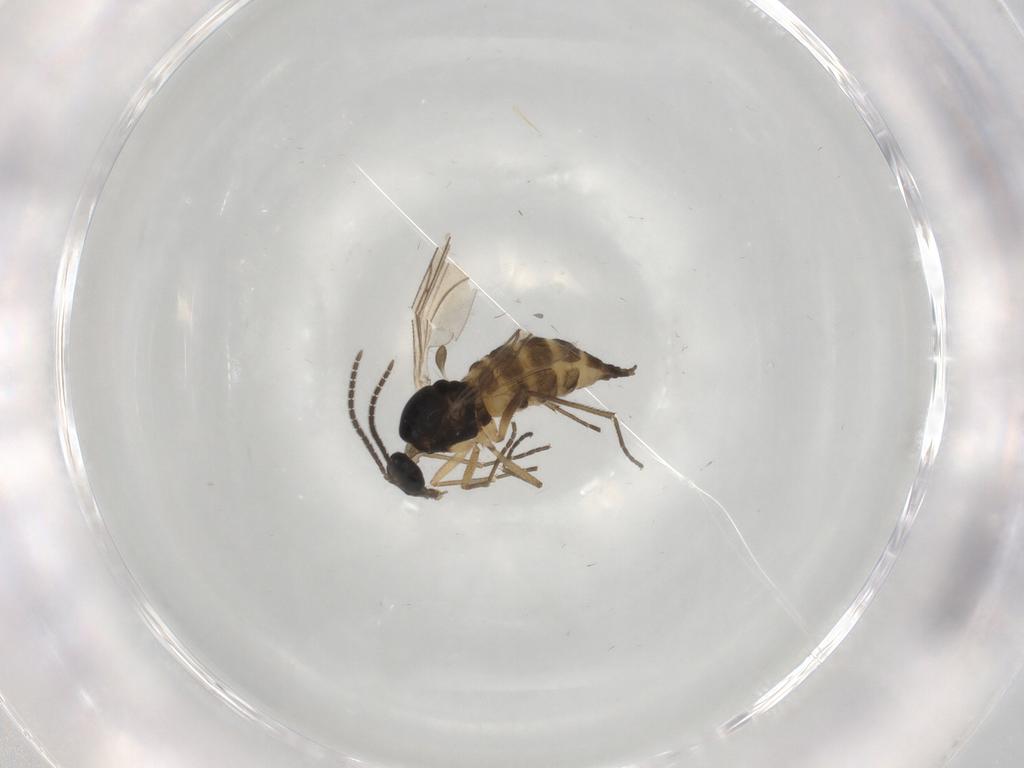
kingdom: Animalia
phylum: Arthropoda
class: Insecta
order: Diptera
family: Phoridae
